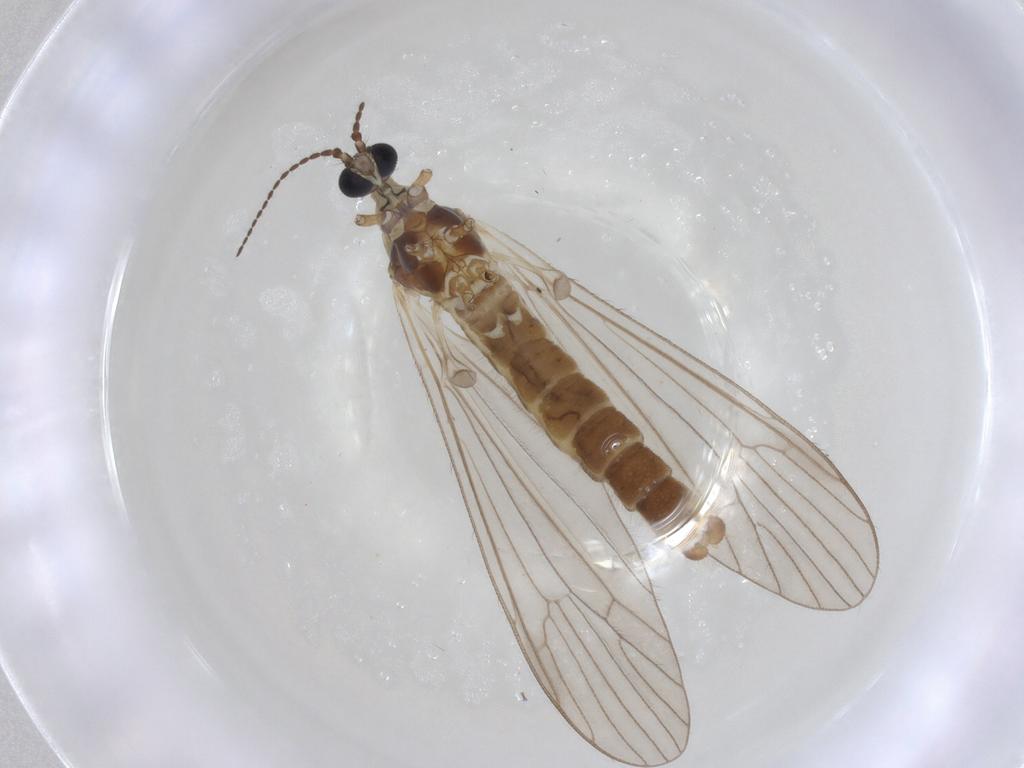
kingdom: Animalia
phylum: Arthropoda
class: Insecta
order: Diptera
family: Limoniidae
